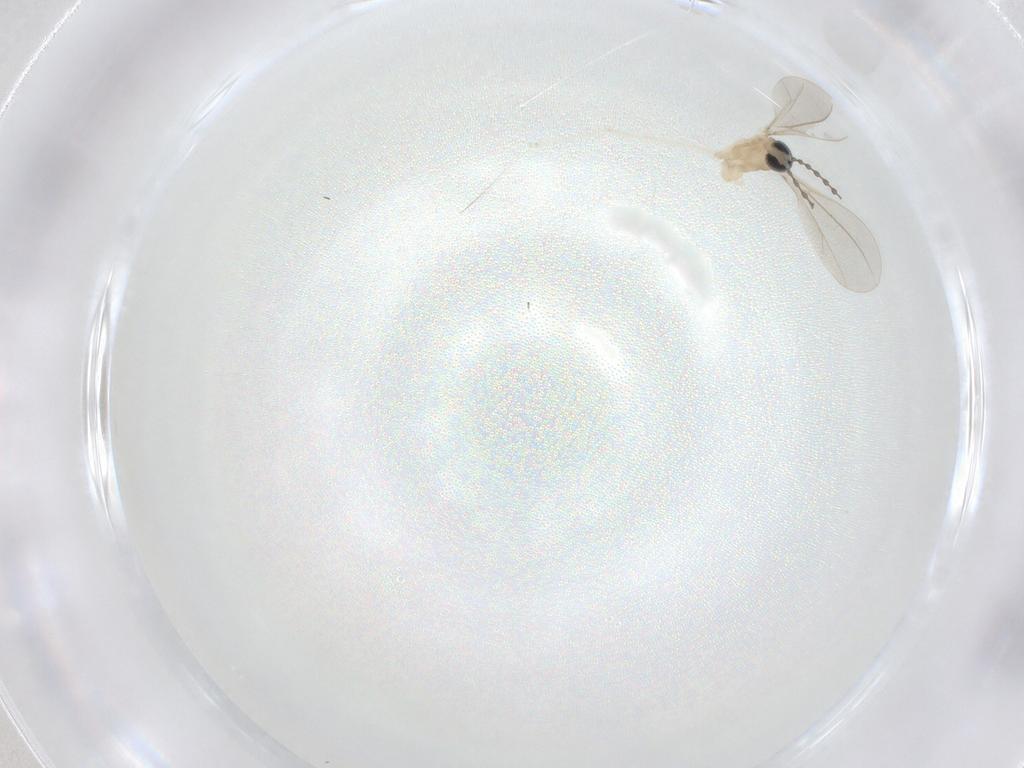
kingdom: Animalia
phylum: Arthropoda
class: Insecta
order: Diptera
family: Cecidomyiidae
